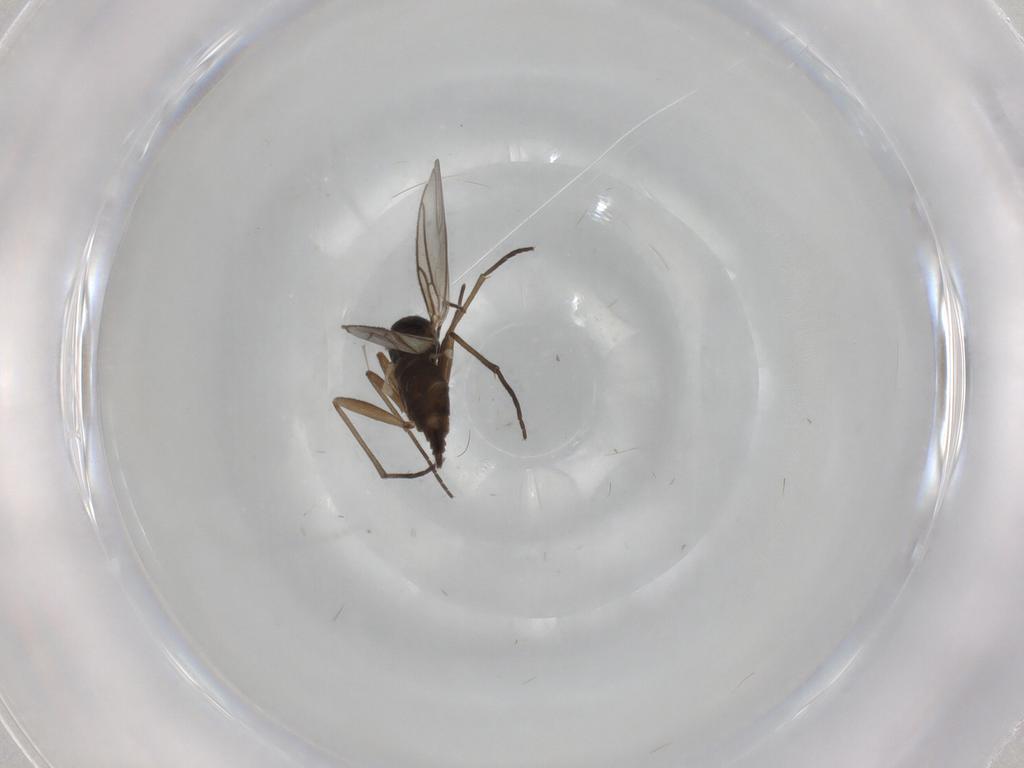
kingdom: Animalia
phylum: Arthropoda
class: Insecta
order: Diptera
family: Sciaridae
